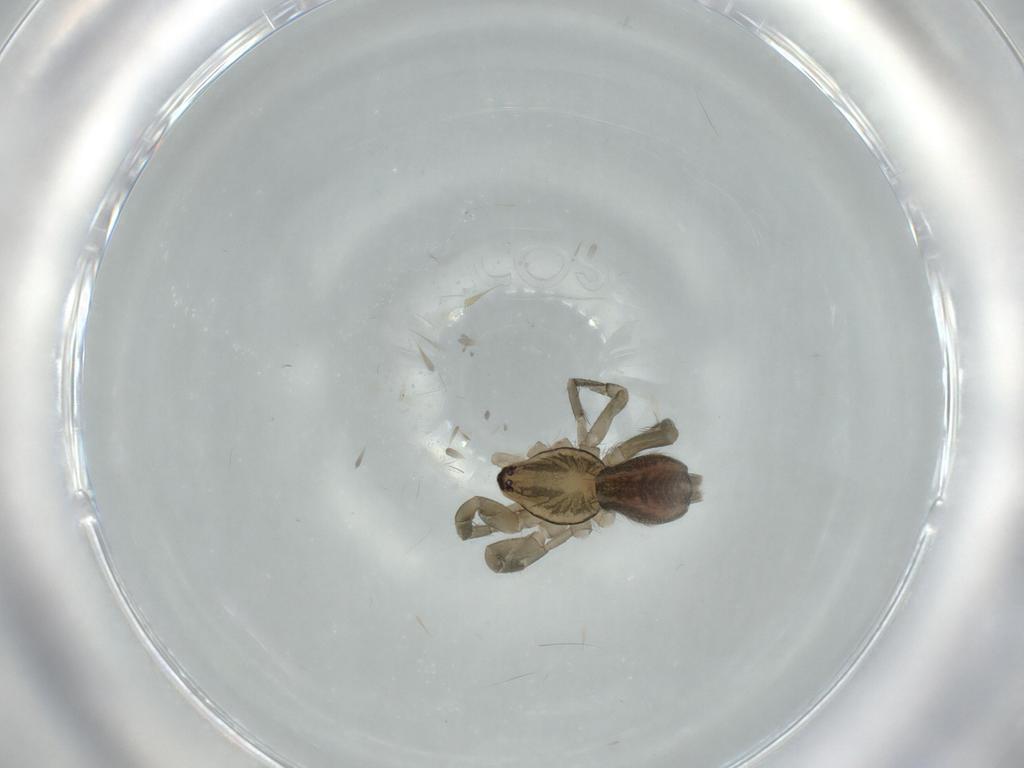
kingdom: Animalia
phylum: Arthropoda
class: Arachnida
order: Araneae
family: Gnaphosidae
